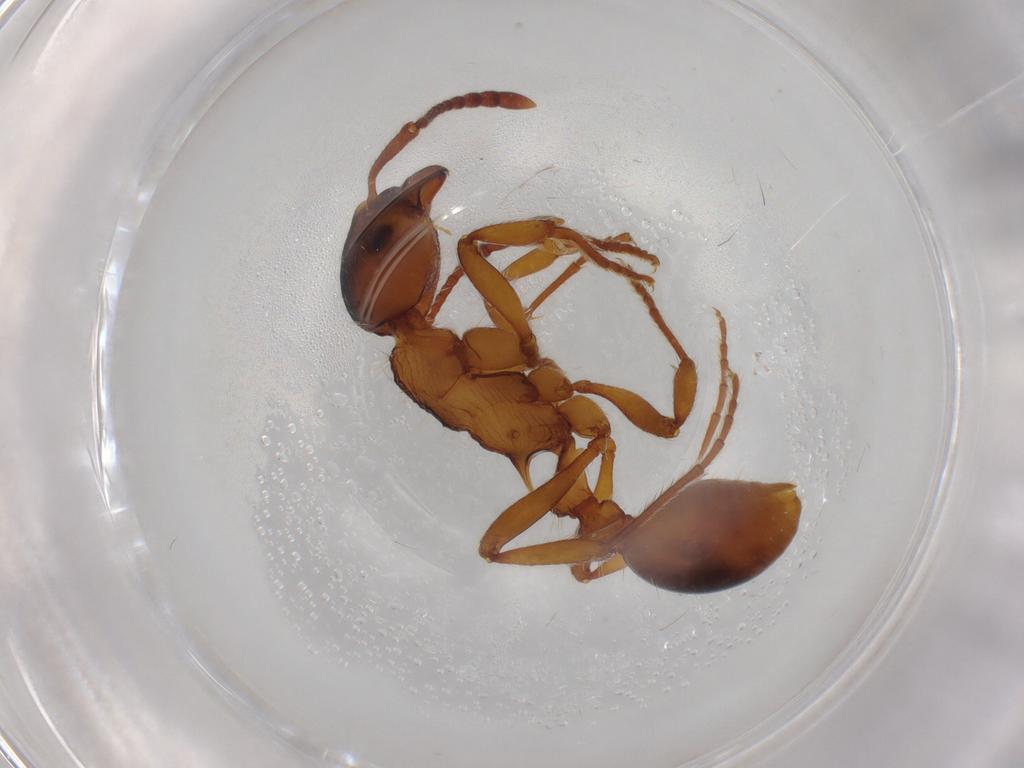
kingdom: Animalia
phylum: Arthropoda
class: Insecta
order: Hymenoptera
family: Formicidae
